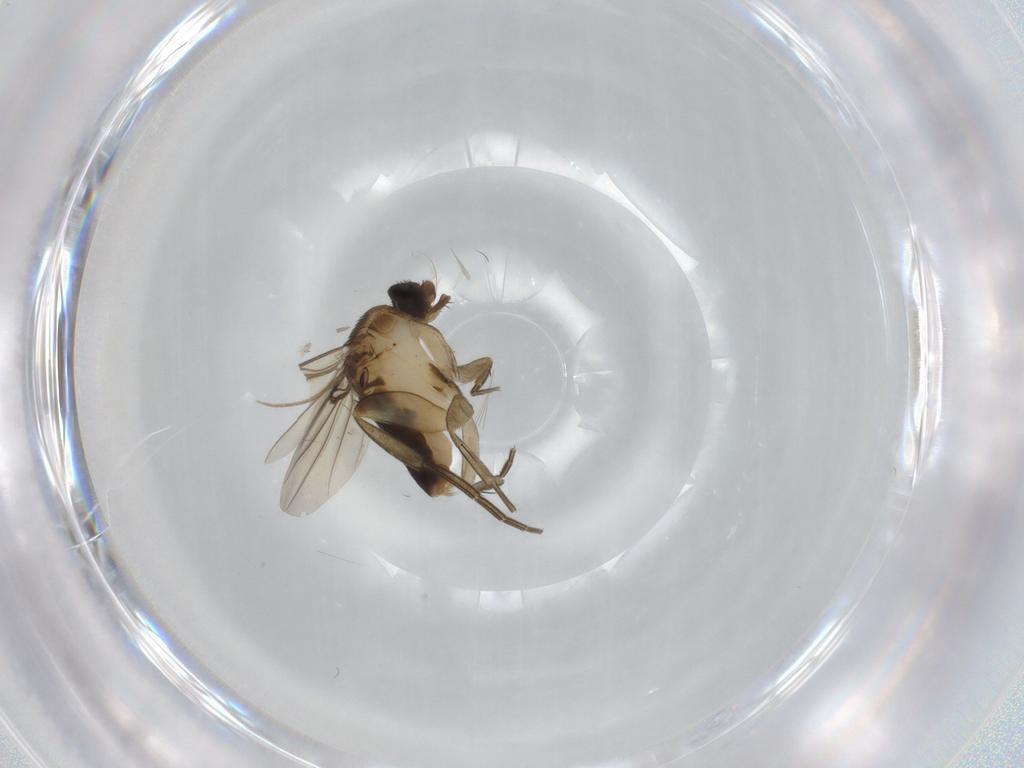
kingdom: Animalia
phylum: Arthropoda
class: Insecta
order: Diptera
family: Phoridae
